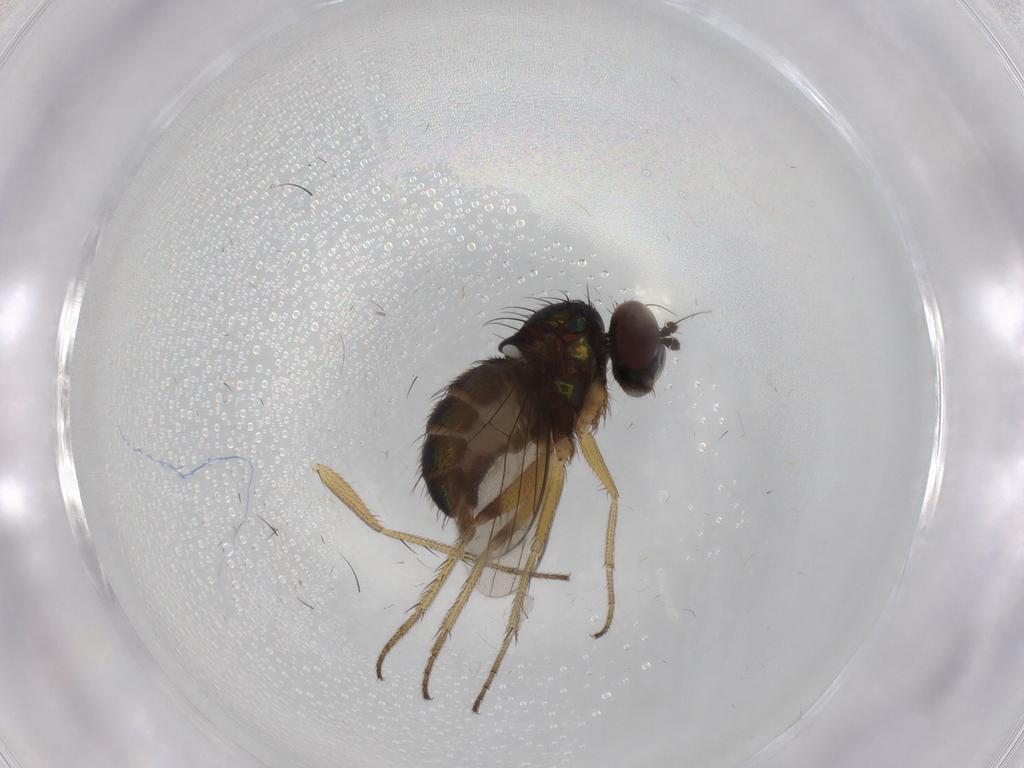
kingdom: Animalia
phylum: Arthropoda
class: Insecta
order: Diptera
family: Dolichopodidae
